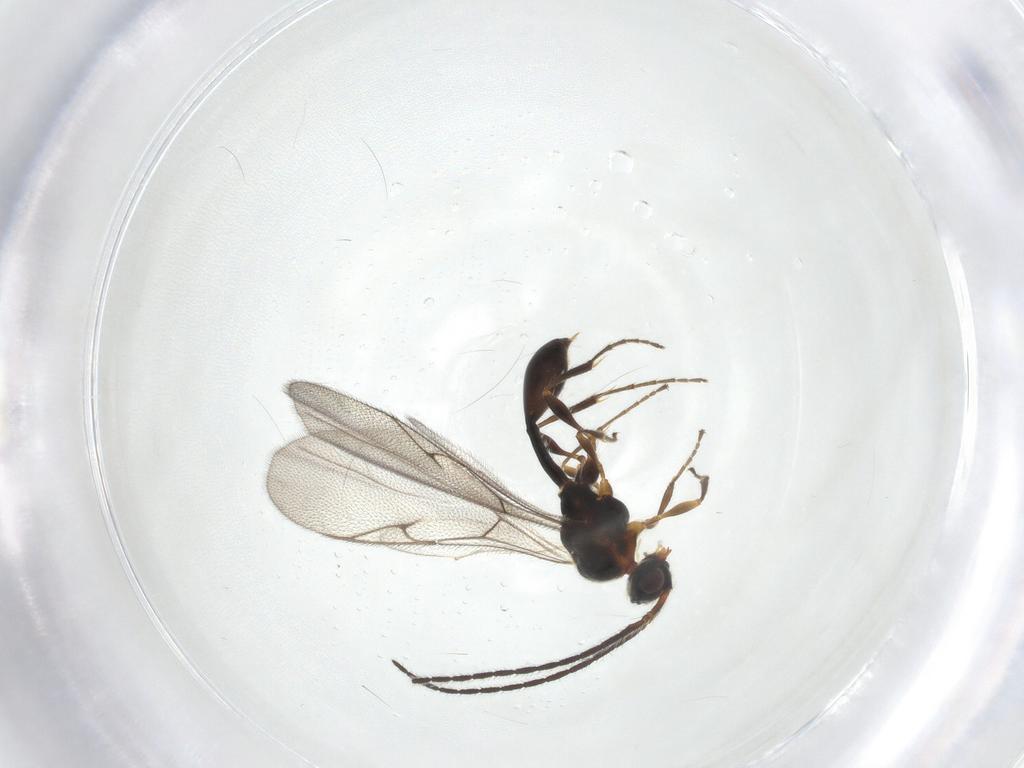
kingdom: Animalia
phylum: Arthropoda
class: Insecta
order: Hymenoptera
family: Diapriidae
